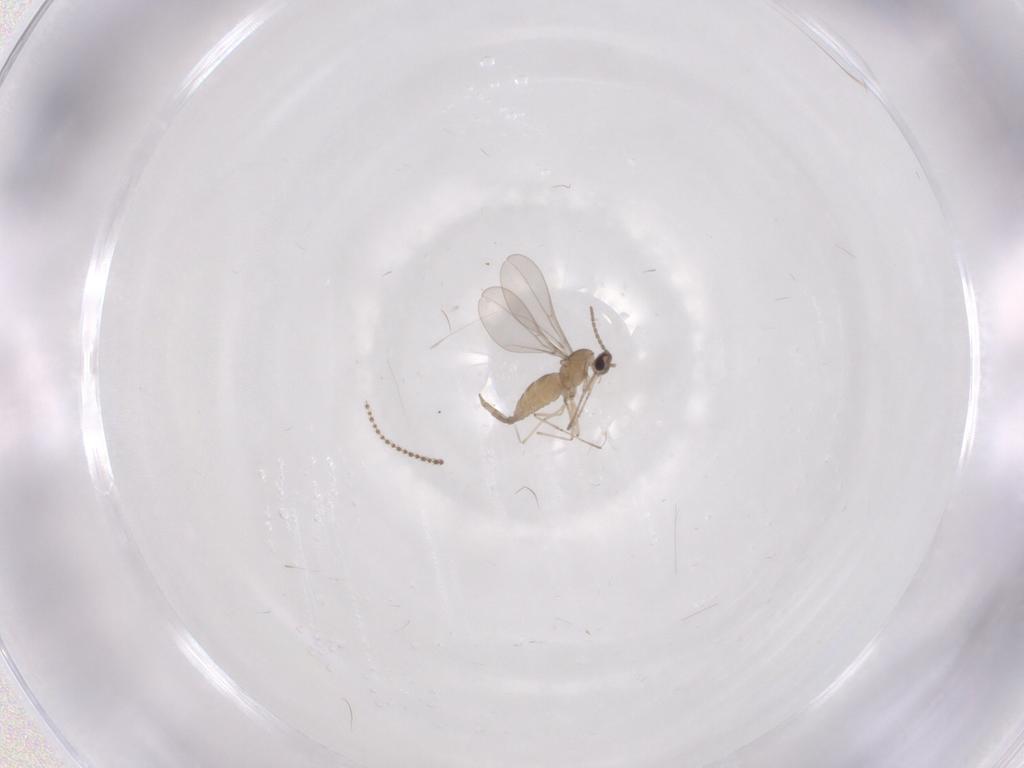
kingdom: Animalia
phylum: Arthropoda
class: Insecta
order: Diptera
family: Cecidomyiidae
